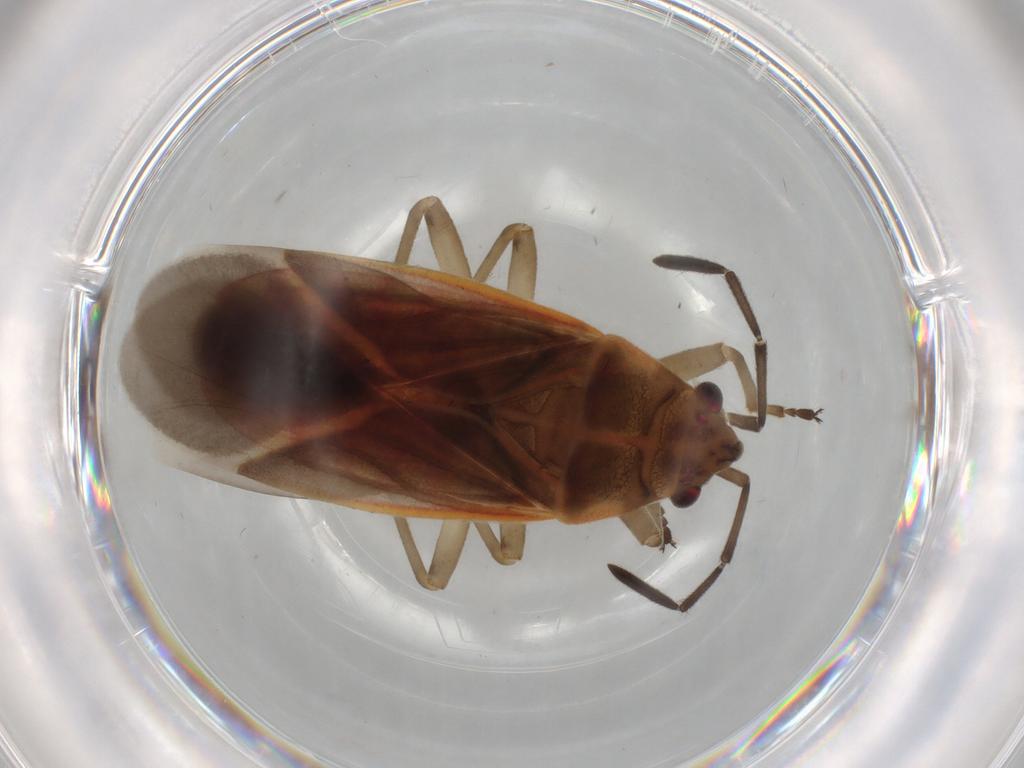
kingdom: Animalia
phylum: Arthropoda
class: Insecta
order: Hemiptera
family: Lygaeidae
